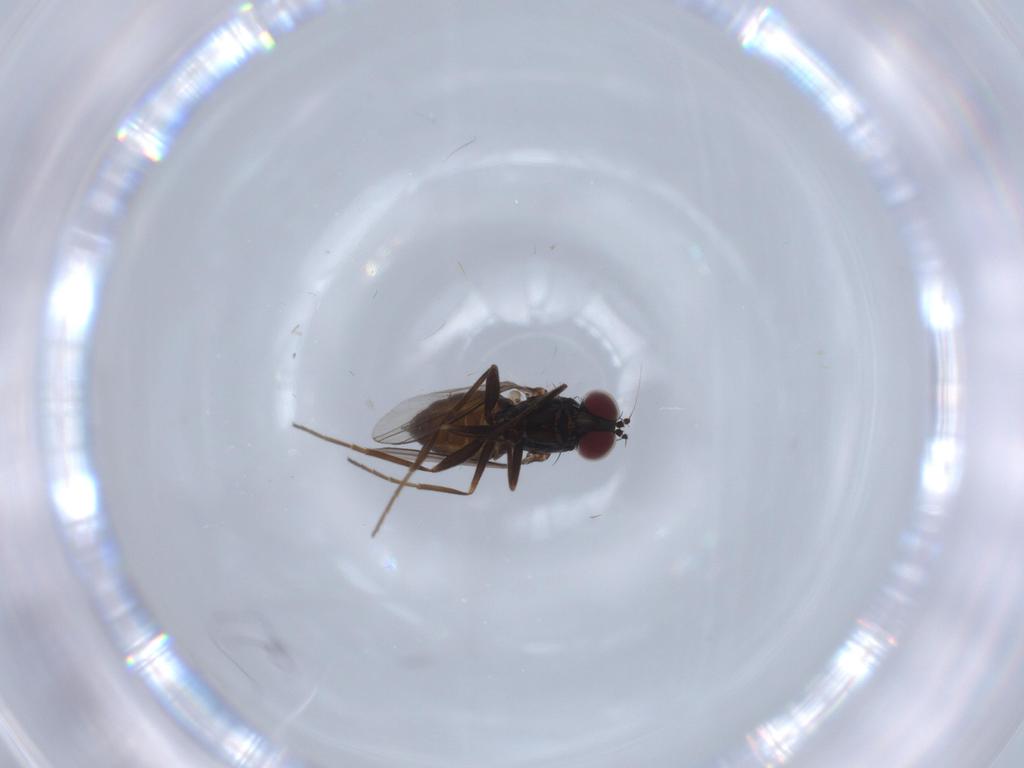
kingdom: Animalia
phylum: Arthropoda
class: Insecta
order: Diptera
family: Dolichopodidae
